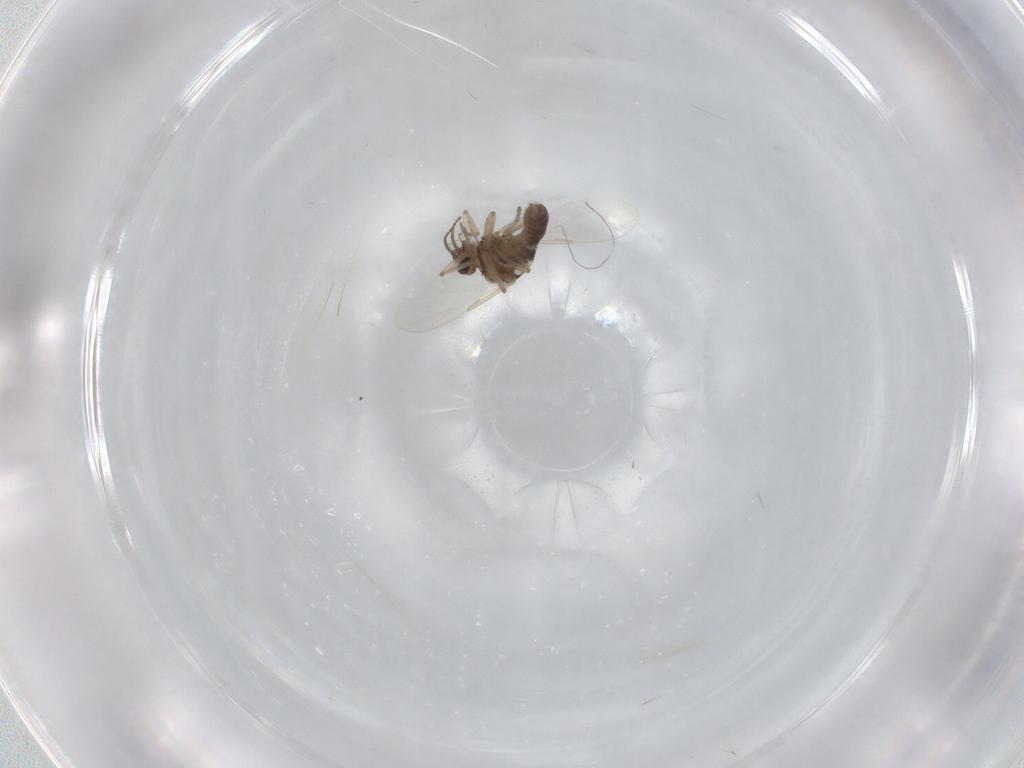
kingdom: Animalia
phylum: Arthropoda
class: Insecta
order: Diptera
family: Ceratopogonidae
